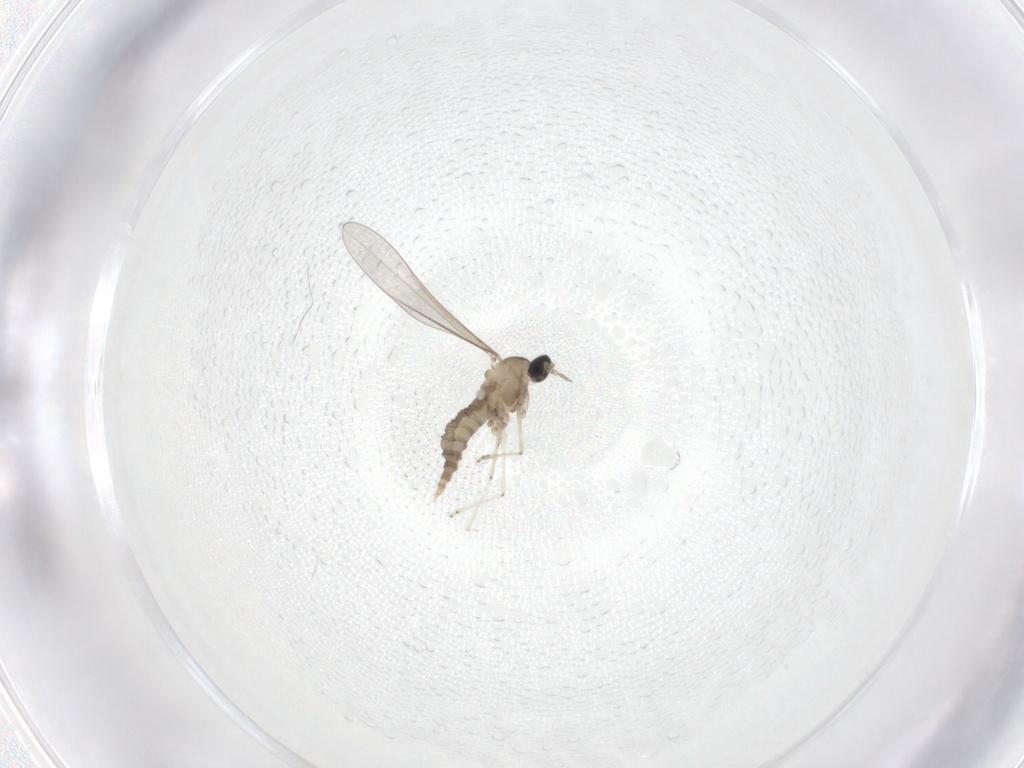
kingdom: Animalia
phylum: Arthropoda
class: Insecta
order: Diptera
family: Cecidomyiidae
